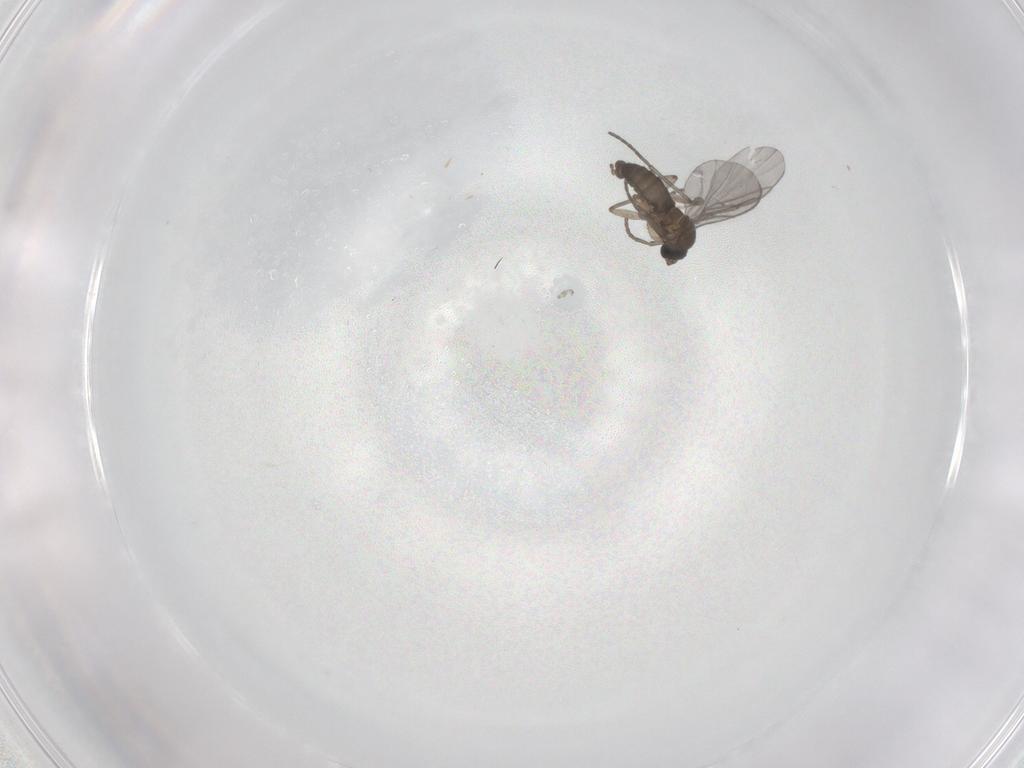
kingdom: Animalia
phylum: Arthropoda
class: Insecta
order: Diptera
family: Sciaridae
